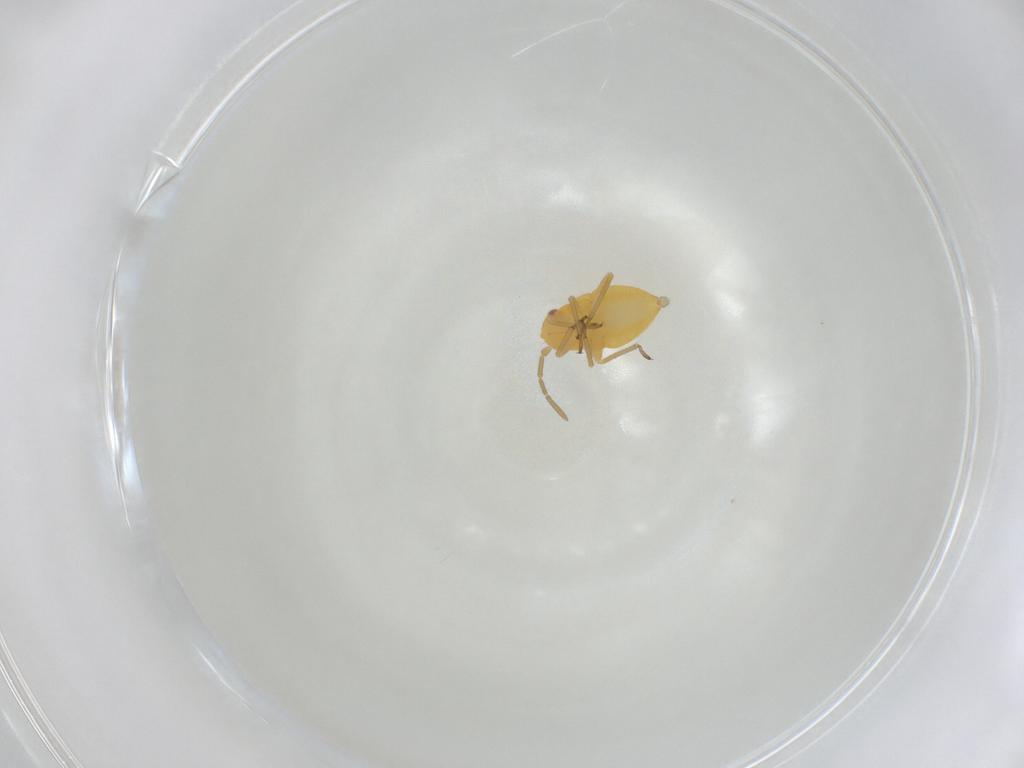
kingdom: Animalia
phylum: Arthropoda
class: Insecta
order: Hemiptera
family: Miridae
